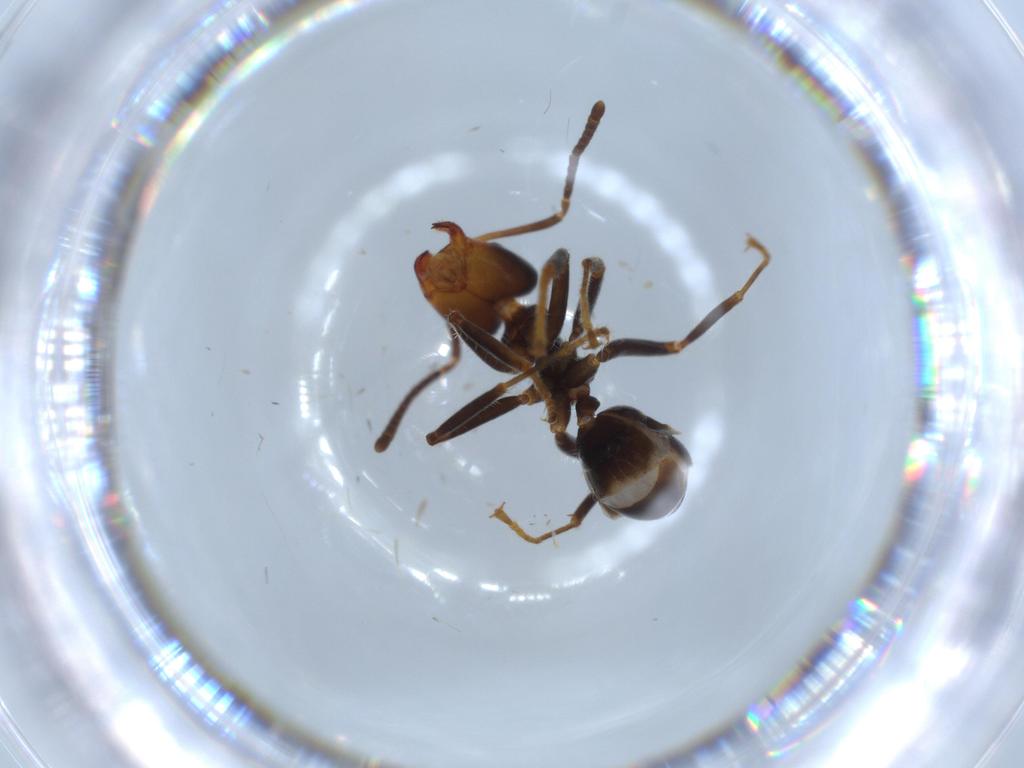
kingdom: Animalia
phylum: Arthropoda
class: Insecta
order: Hymenoptera
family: Formicidae
